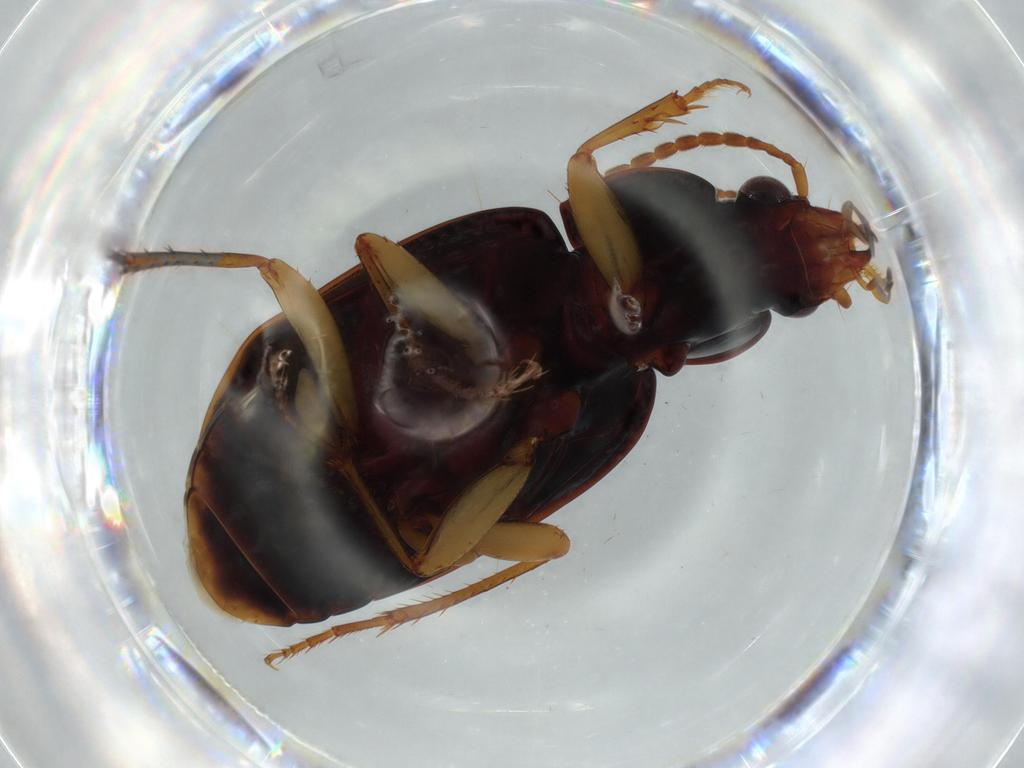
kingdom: Animalia
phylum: Arthropoda
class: Insecta
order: Coleoptera
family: Carabidae
